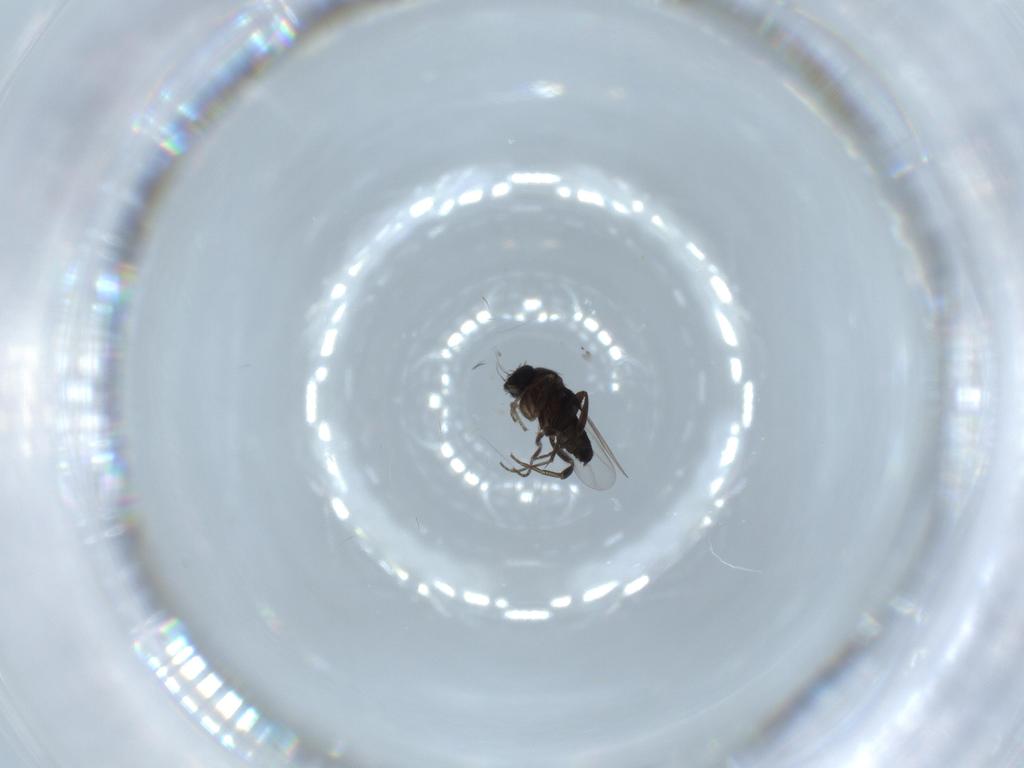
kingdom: Animalia
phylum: Arthropoda
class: Insecta
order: Diptera
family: Phoridae
